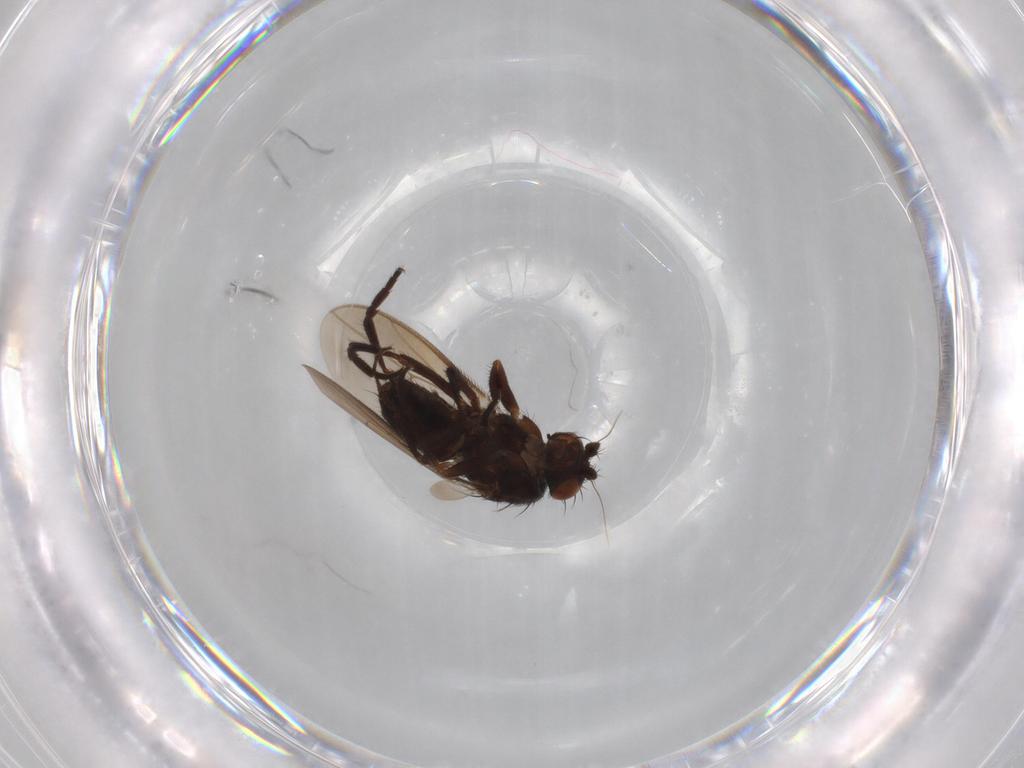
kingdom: Animalia
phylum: Arthropoda
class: Insecta
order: Diptera
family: Sphaeroceridae
